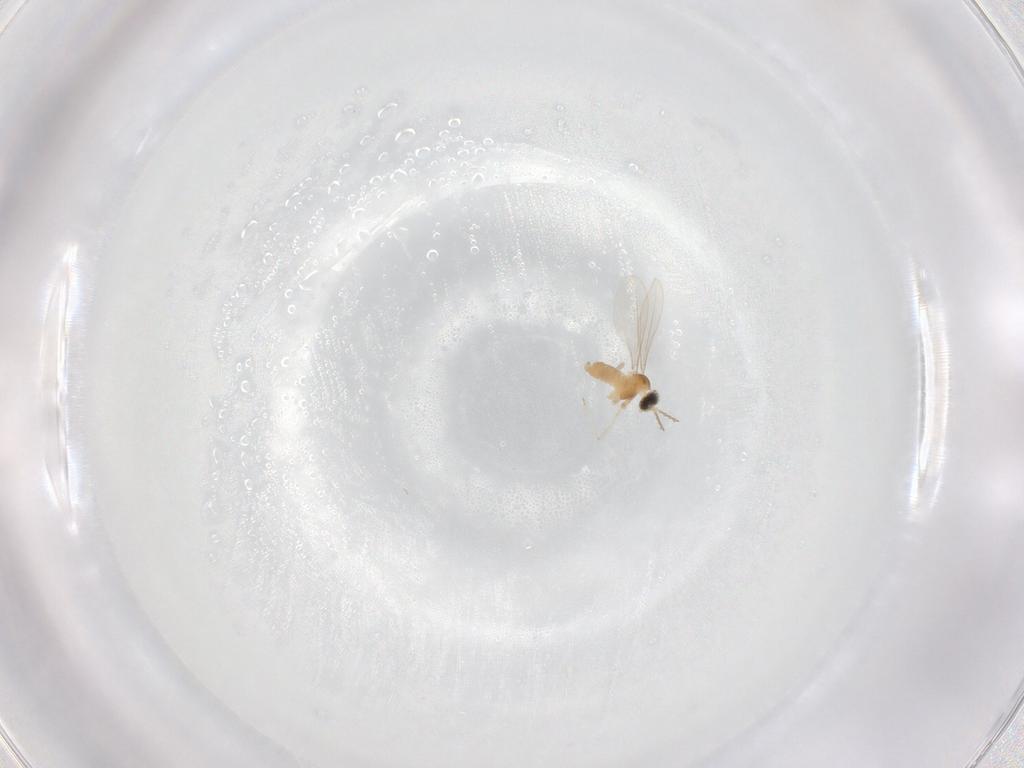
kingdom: Animalia
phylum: Arthropoda
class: Insecta
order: Diptera
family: Cecidomyiidae
